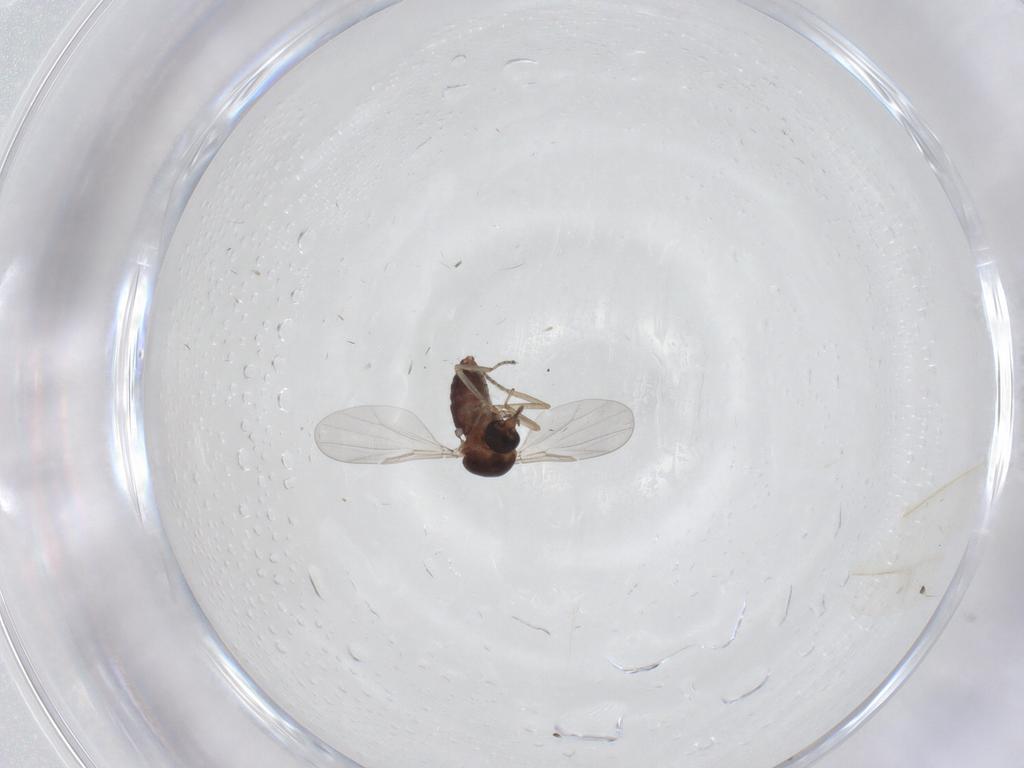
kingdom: Animalia
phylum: Arthropoda
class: Insecta
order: Diptera
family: Cecidomyiidae
